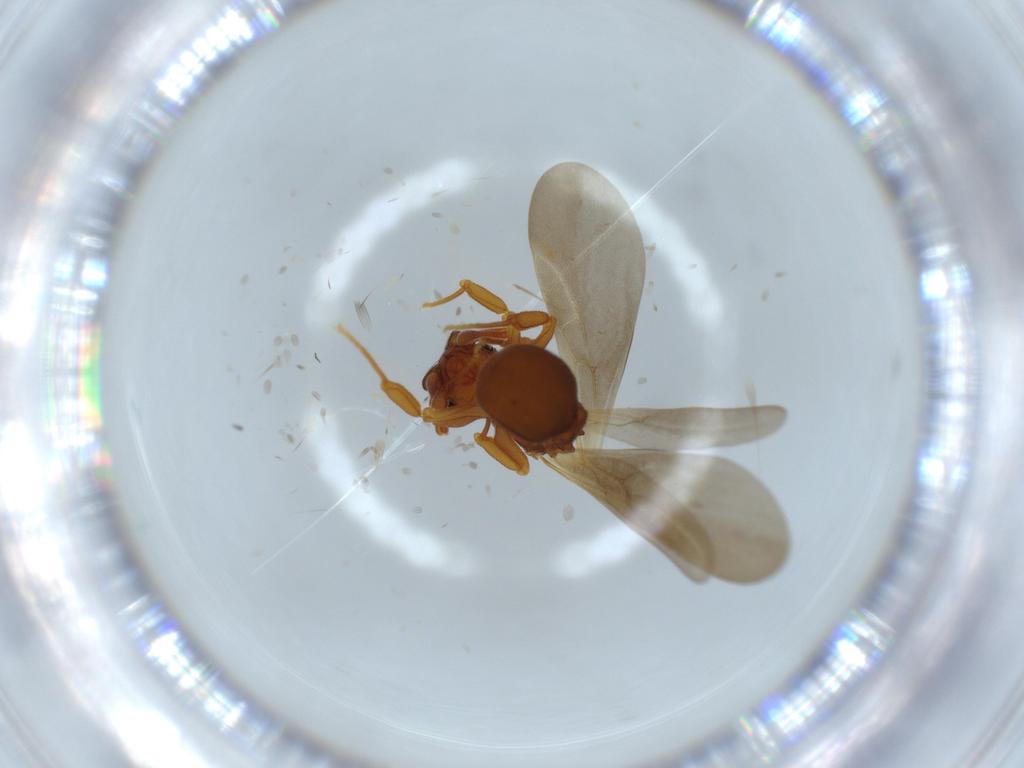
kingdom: Animalia
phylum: Arthropoda
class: Insecta
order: Hymenoptera
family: Formicidae
